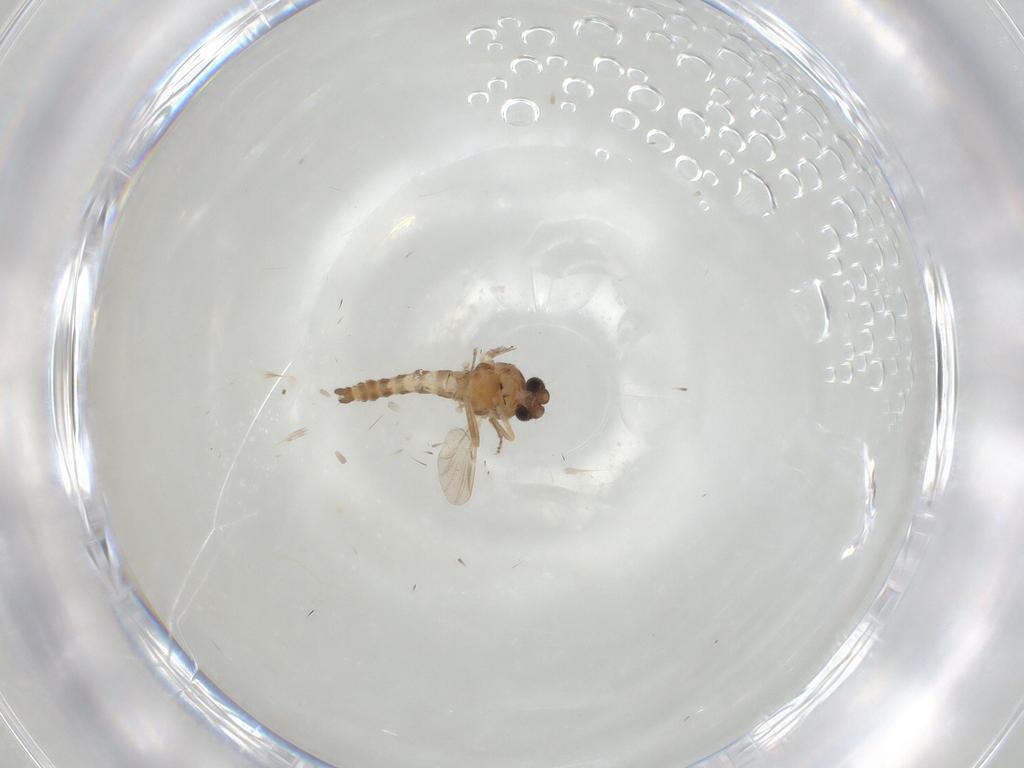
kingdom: Animalia
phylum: Arthropoda
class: Insecta
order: Diptera
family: Ceratopogonidae
